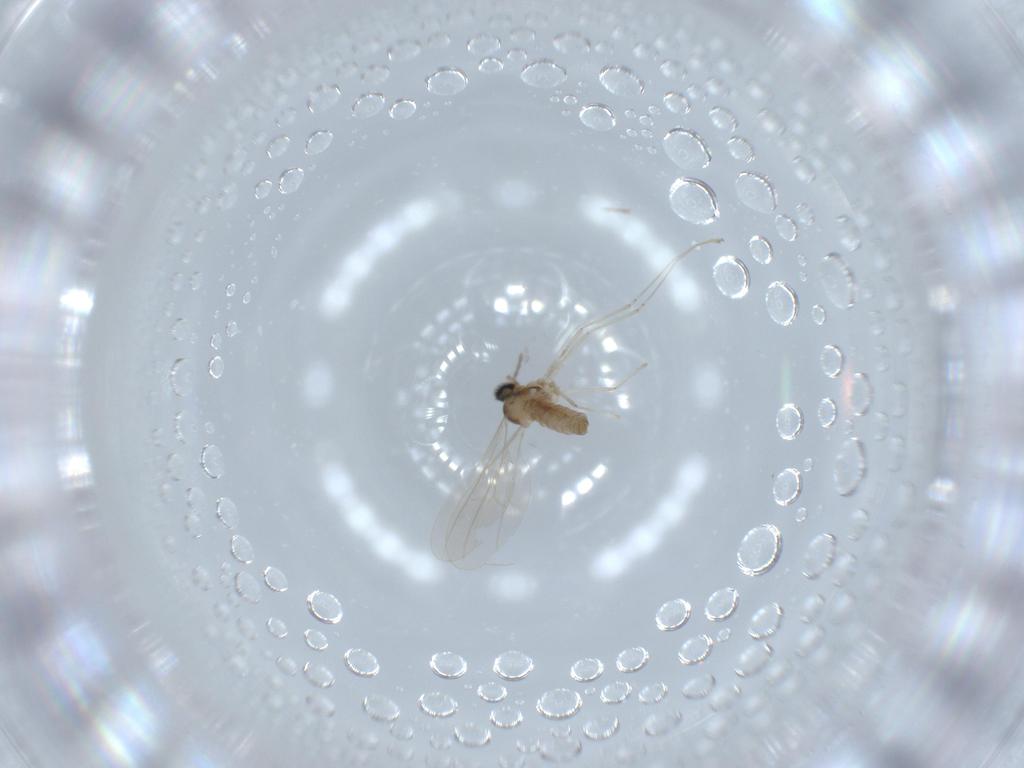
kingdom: Animalia
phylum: Arthropoda
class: Insecta
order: Diptera
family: Cecidomyiidae
